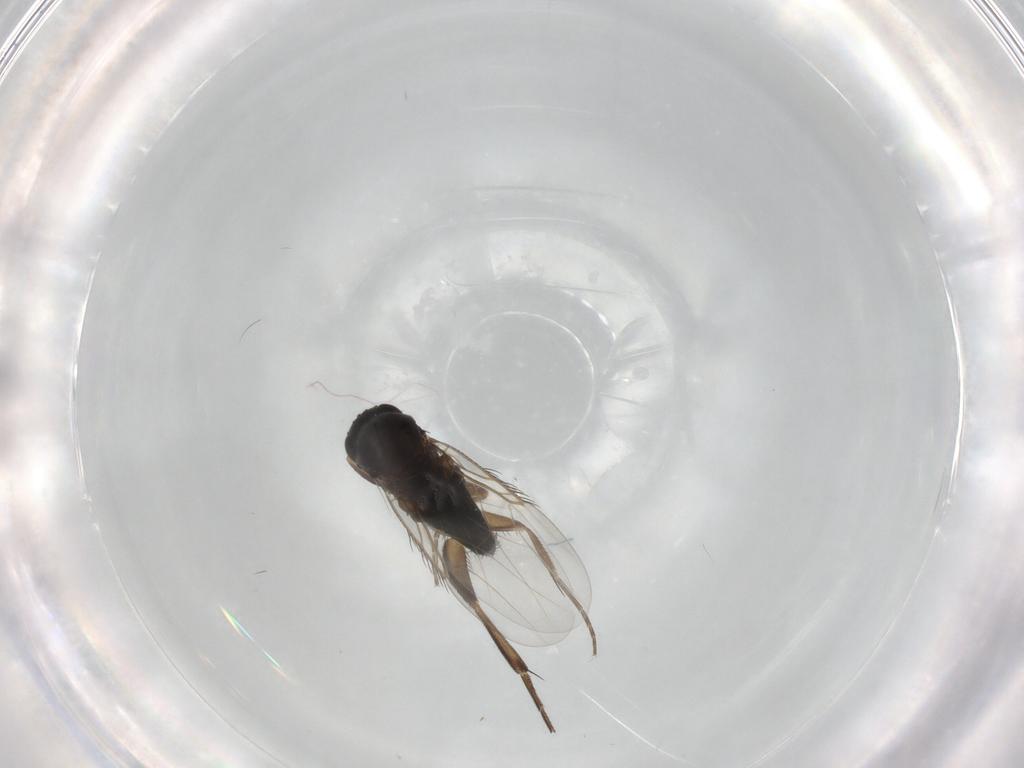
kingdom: Animalia
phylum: Arthropoda
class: Insecta
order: Diptera
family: Phoridae
